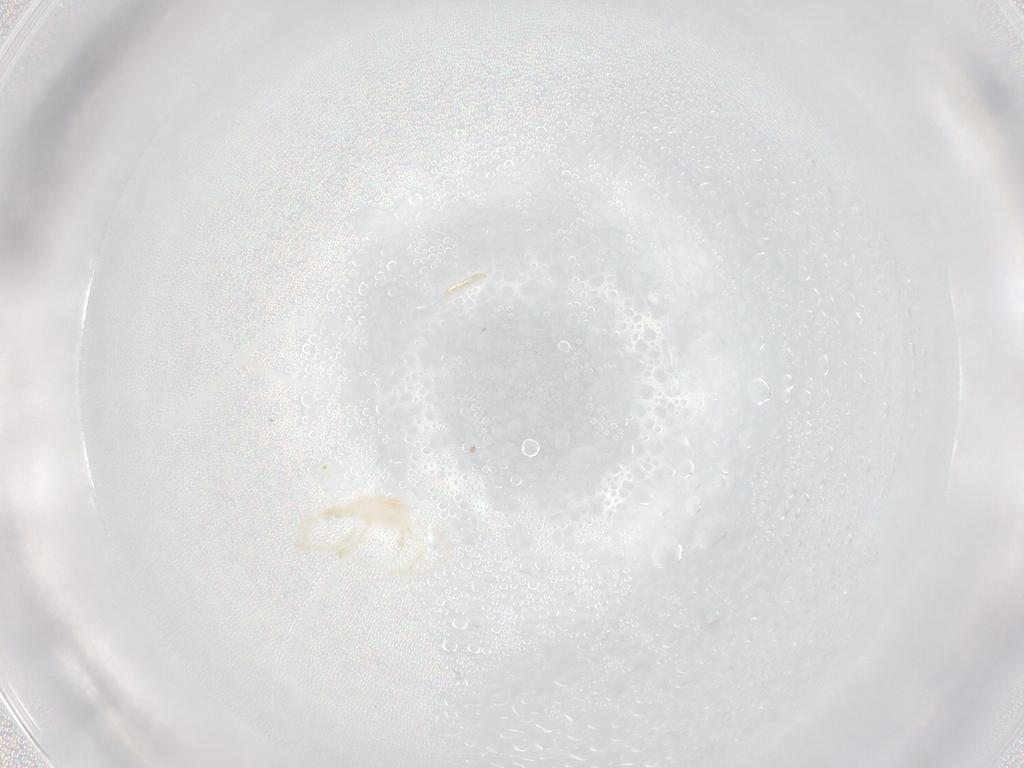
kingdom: Animalia
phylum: Arthropoda
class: Arachnida
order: Trombidiformes
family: Erythraeidae
